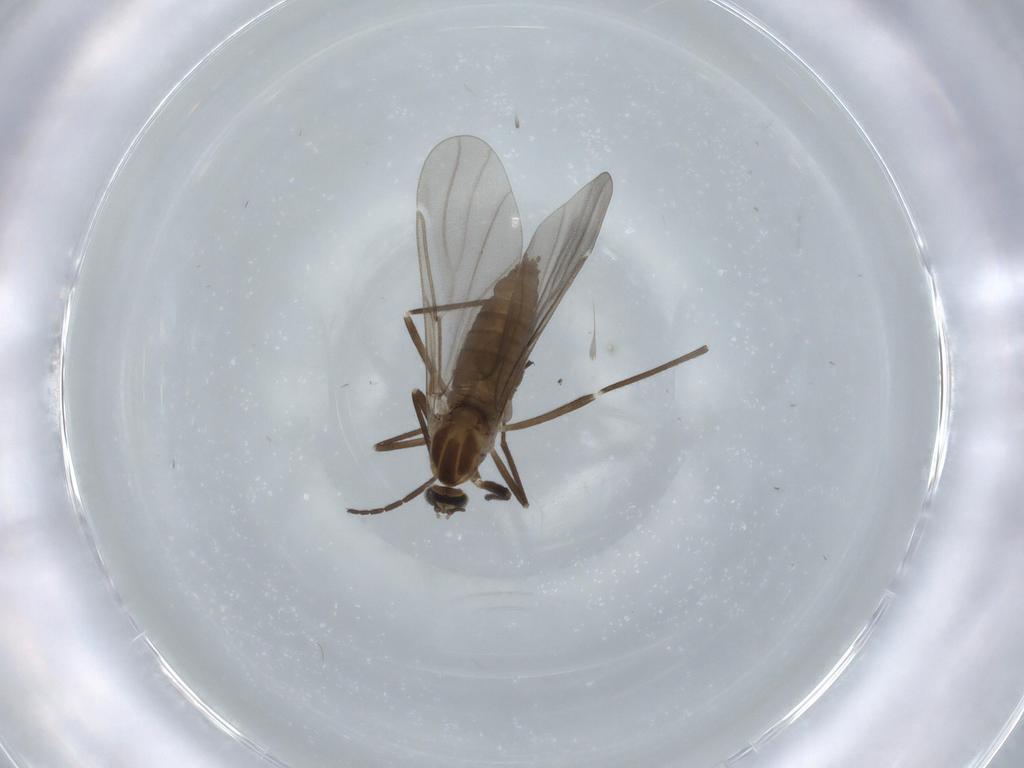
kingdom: Animalia
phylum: Arthropoda
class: Insecta
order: Diptera
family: Cecidomyiidae
